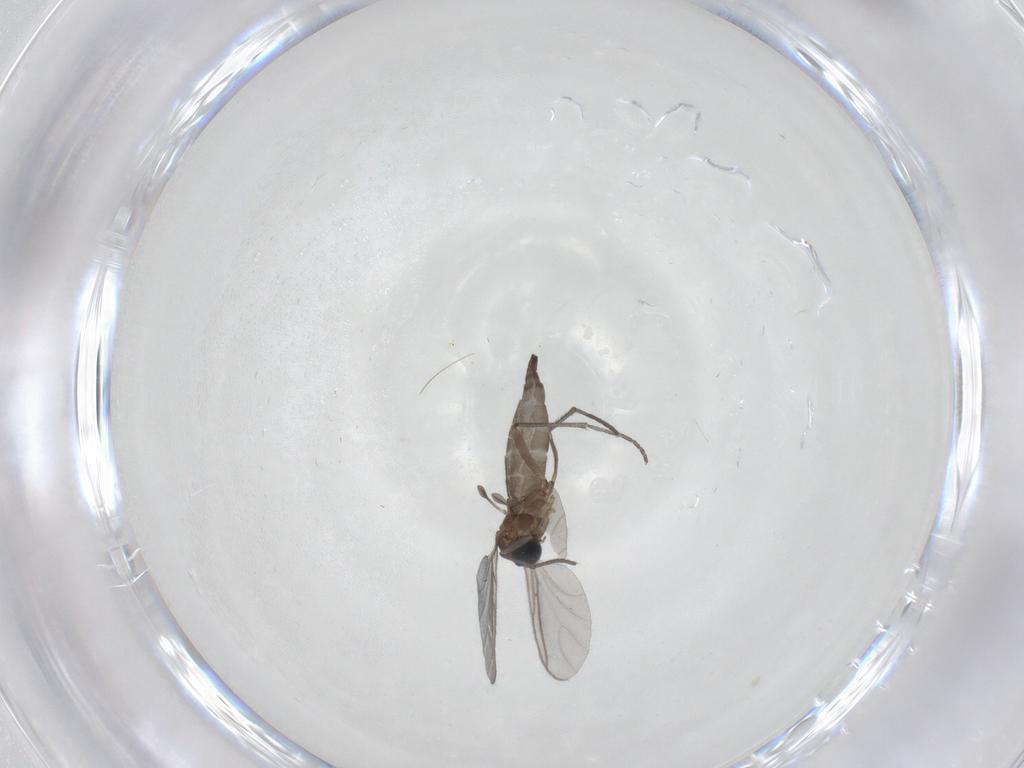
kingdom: Animalia
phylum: Arthropoda
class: Insecta
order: Diptera
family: Sciaridae
